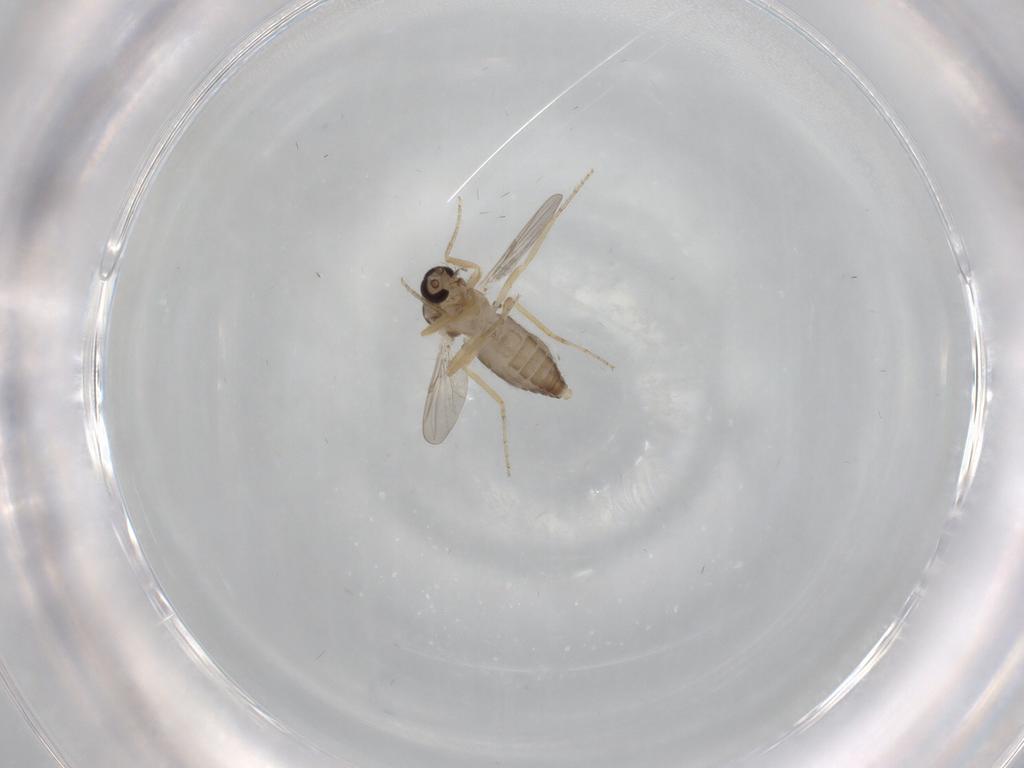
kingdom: Animalia
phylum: Arthropoda
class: Insecta
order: Diptera
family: Ceratopogonidae
